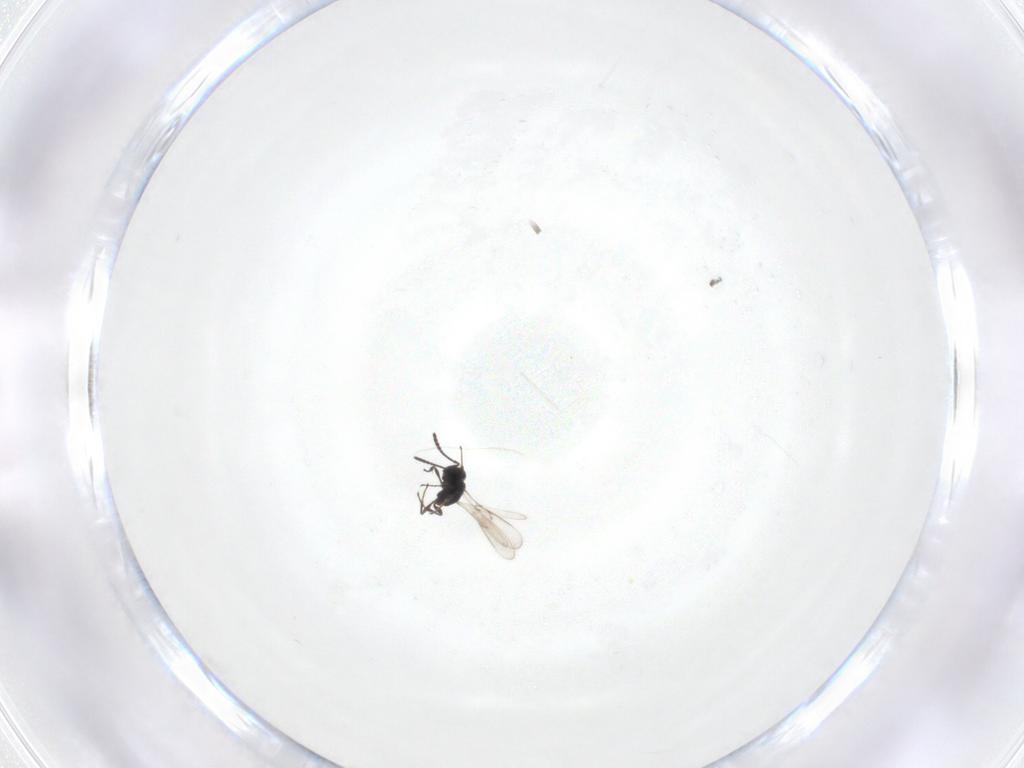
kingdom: Animalia
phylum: Arthropoda
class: Insecta
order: Hymenoptera
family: Scelionidae
